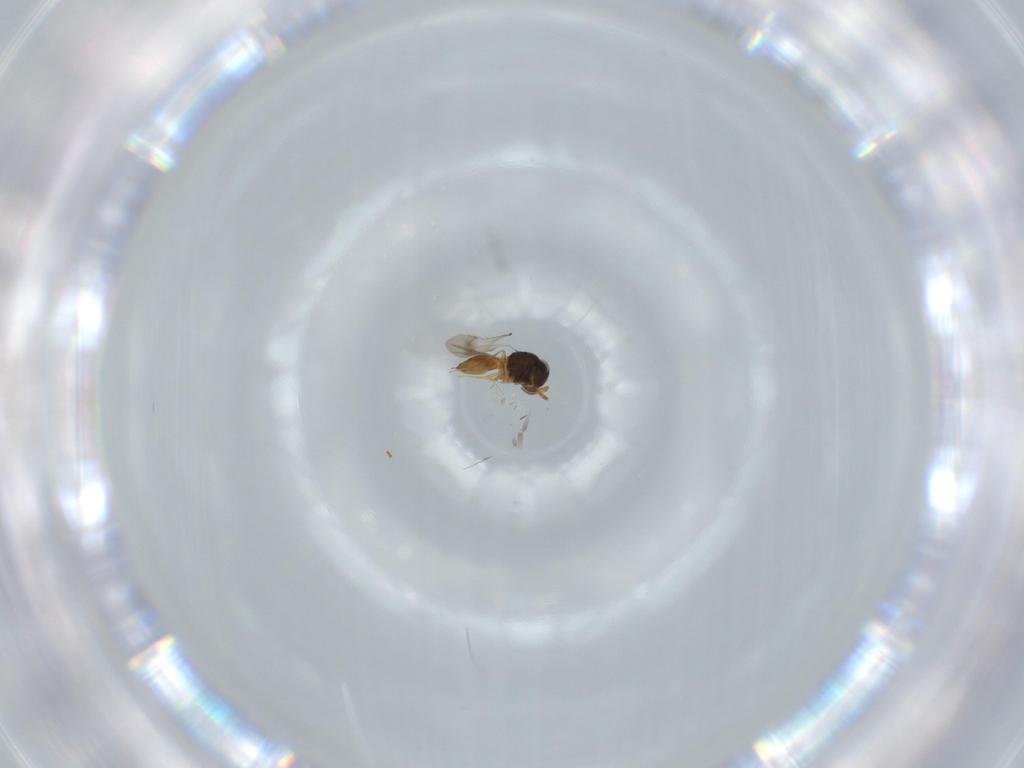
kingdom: Animalia
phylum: Arthropoda
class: Insecta
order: Hymenoptera
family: Scelionidae
